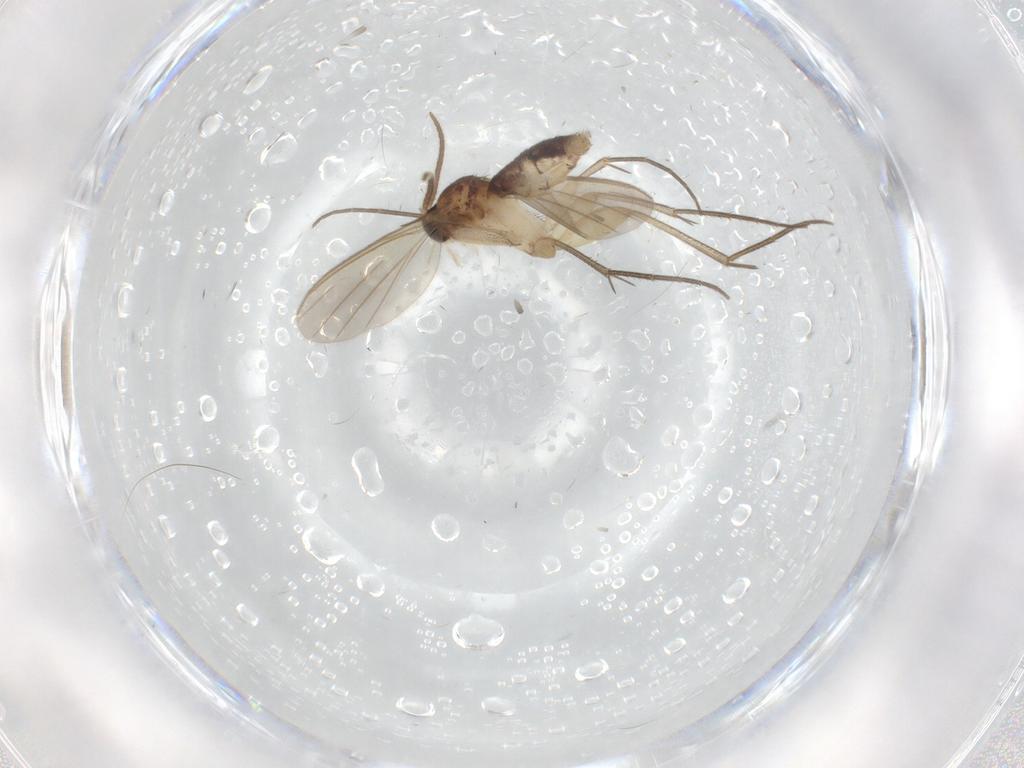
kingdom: Animalia
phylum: Arthropoda
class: Insecta
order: Diptera
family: Mycetophilidae
